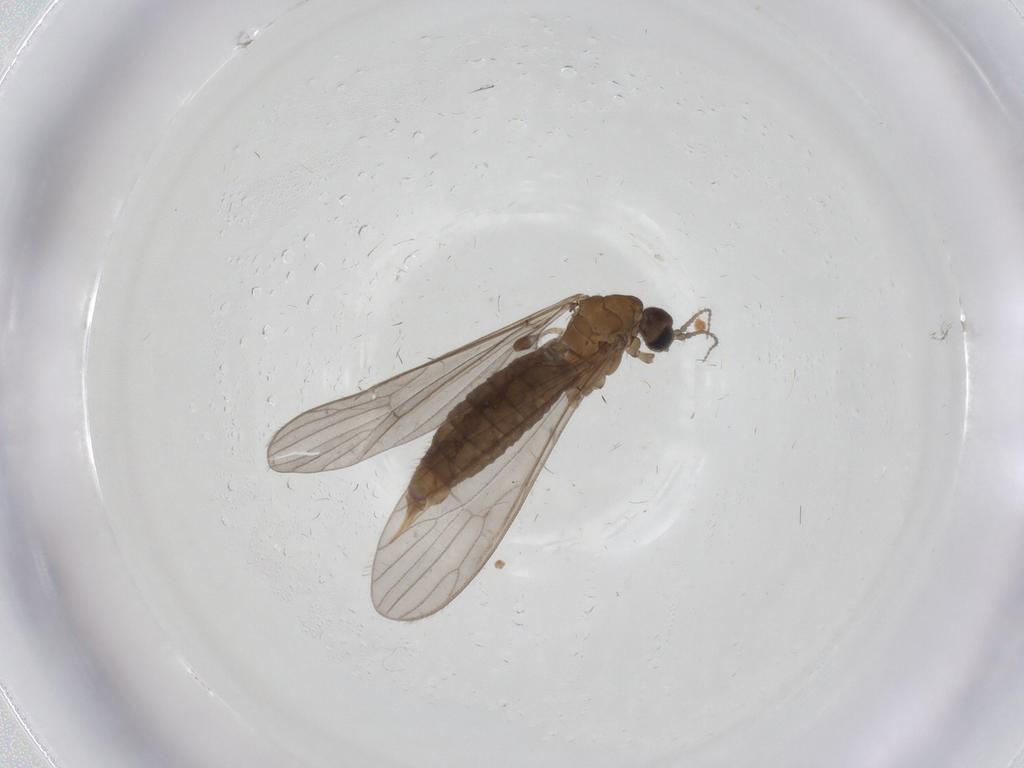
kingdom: Animalia
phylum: Arthropoda
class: Insecta
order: Diptera
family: Limoniidae
